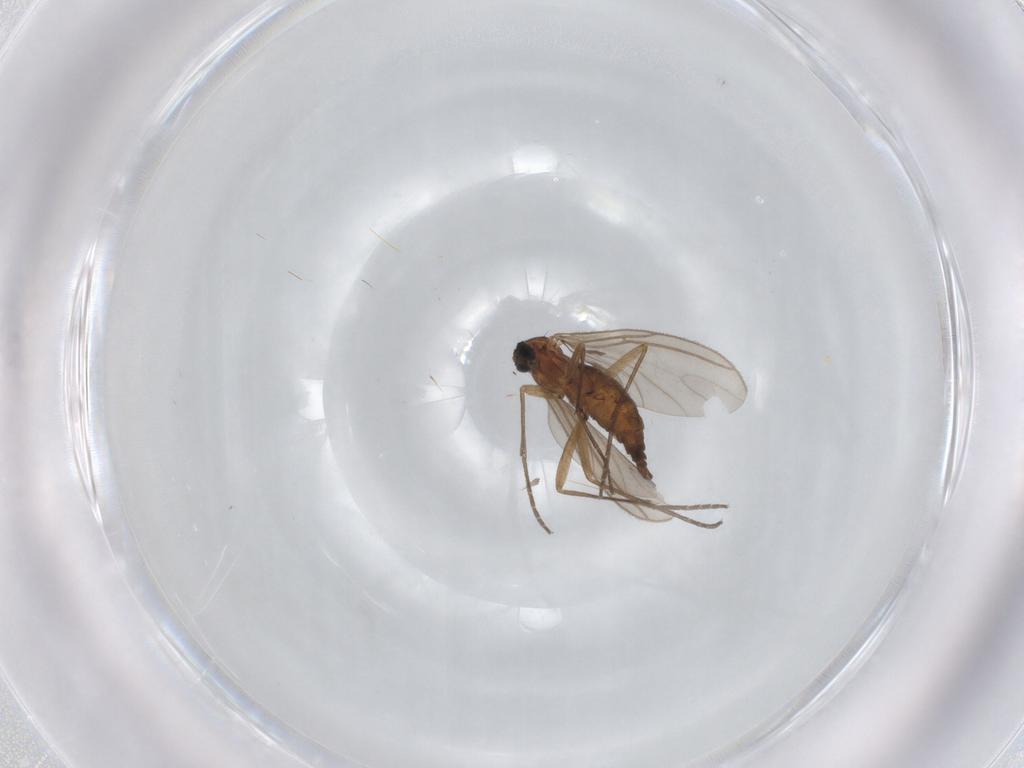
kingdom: Animalia
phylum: Arthropoda
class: Insecta
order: Diptera
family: Sciaridae
